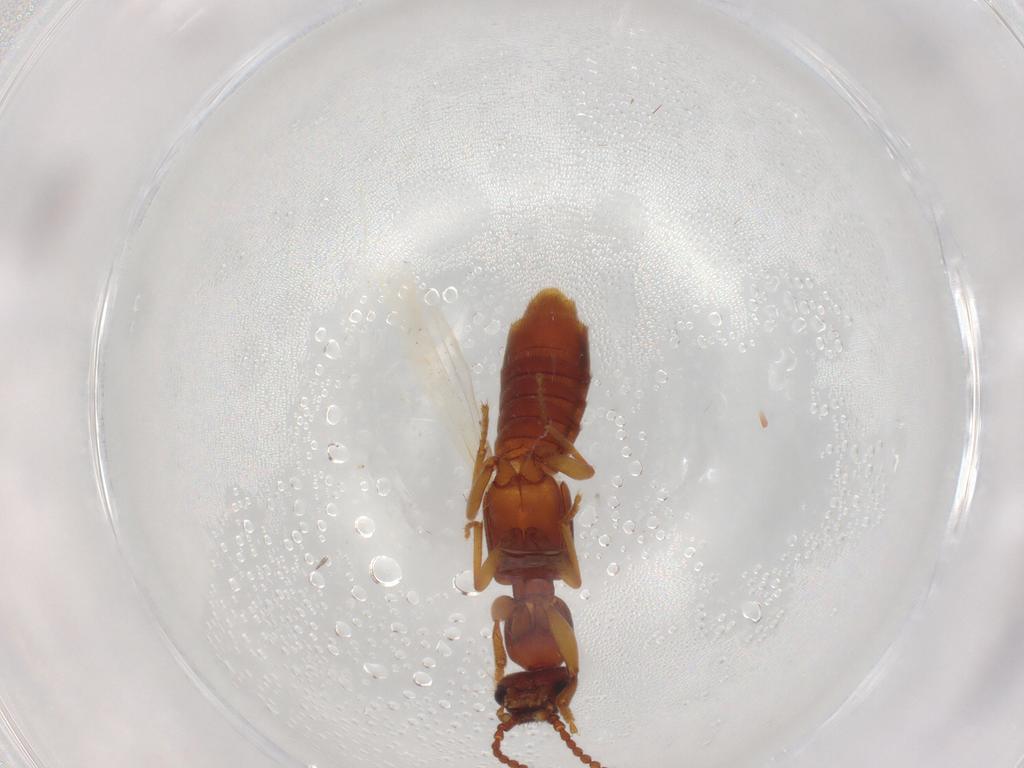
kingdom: Animalia
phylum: Arthropoda
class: Insecta
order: Coleoptera
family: Staphylinidae
